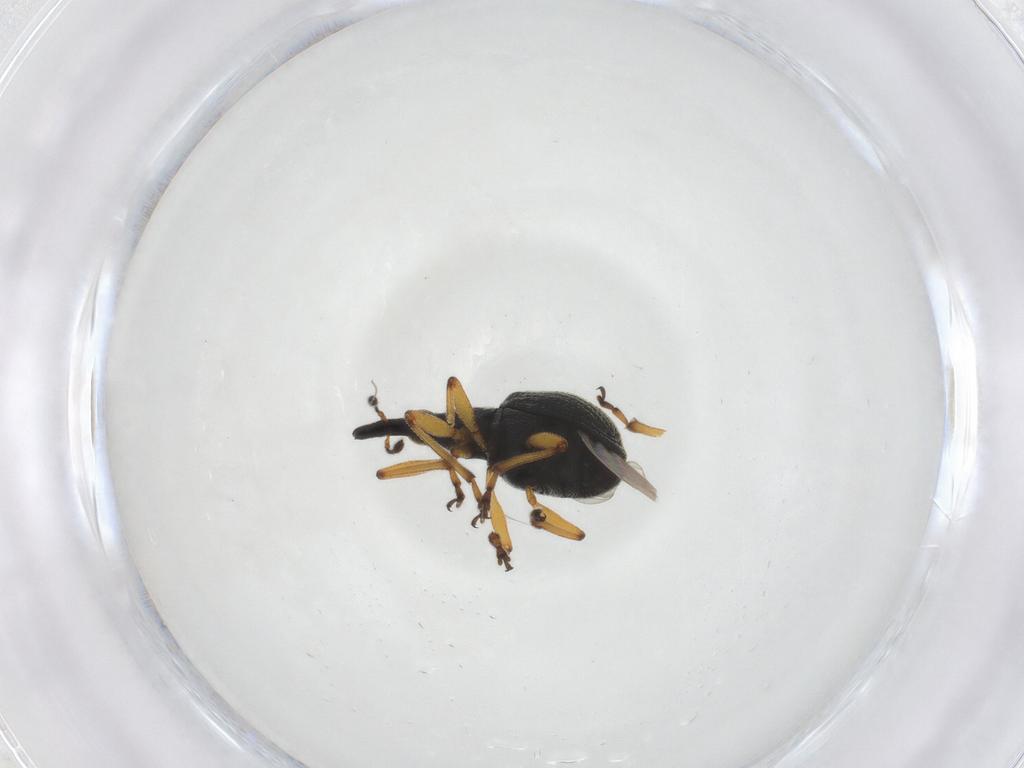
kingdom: Animalia
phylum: Arthropoda
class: Insecta
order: Coleoptera
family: Brentidae
